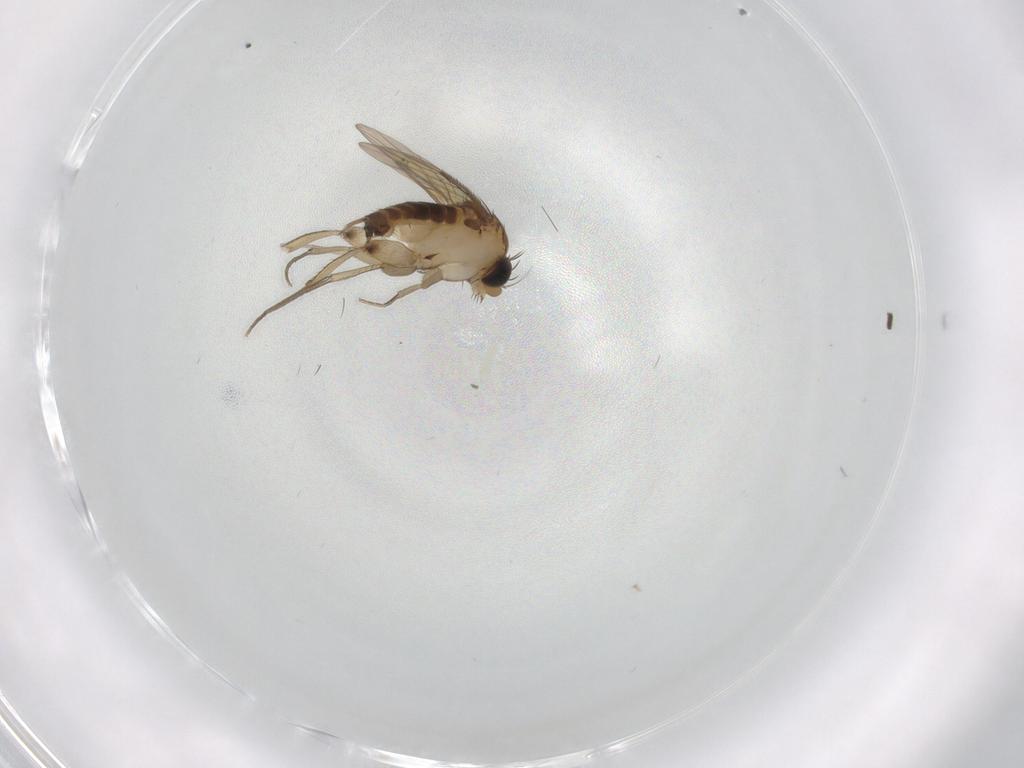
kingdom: Animalia
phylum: Arthropoda
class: Insecta
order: Diptera
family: Phoridae
